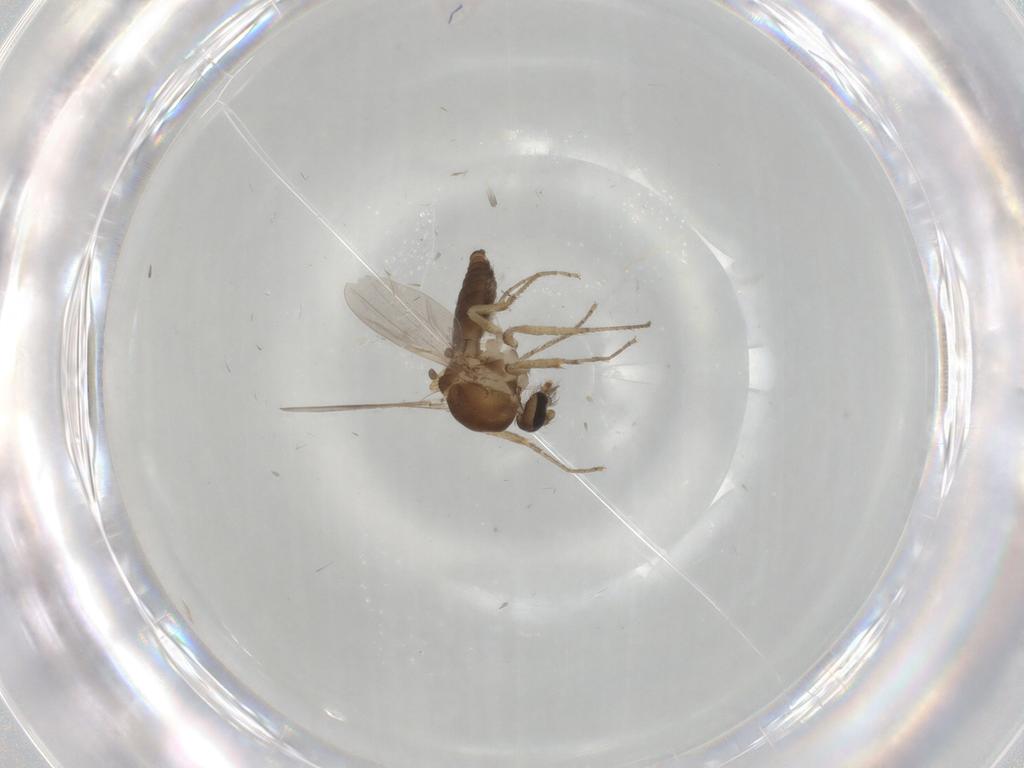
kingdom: Animalia
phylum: Arthropoda
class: Insecta
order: Diptera
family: Ceratopogonidae
